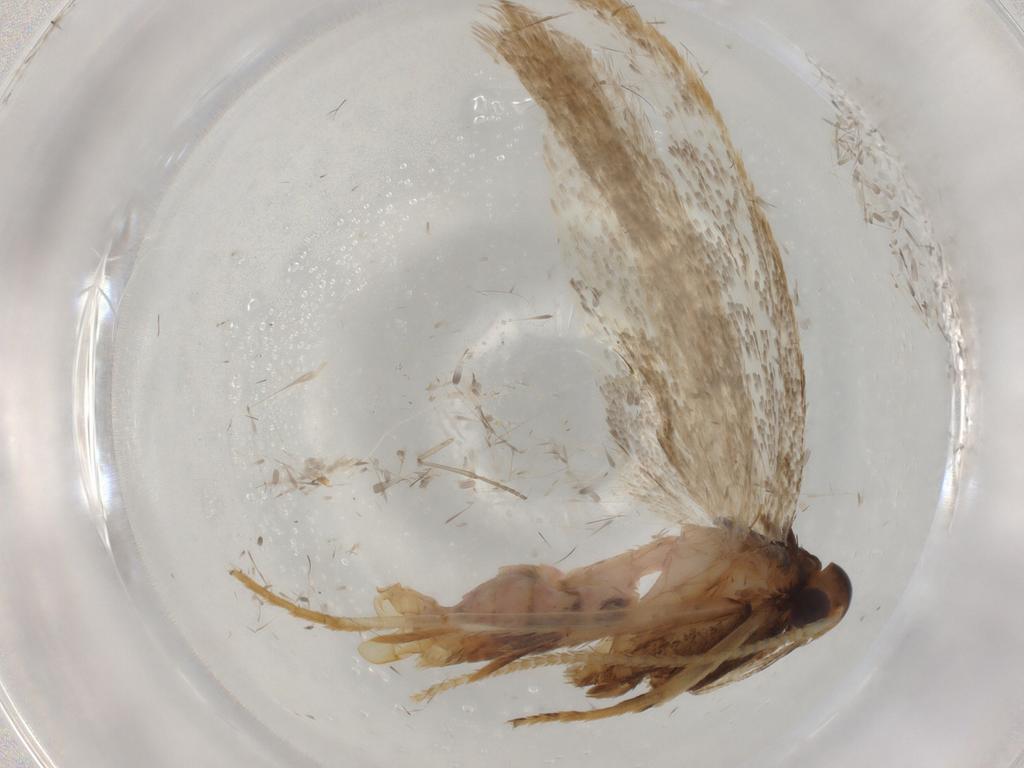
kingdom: Animalia
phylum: Arthropoda
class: Insecta
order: Lepidoptera
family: Lecithoceridae
